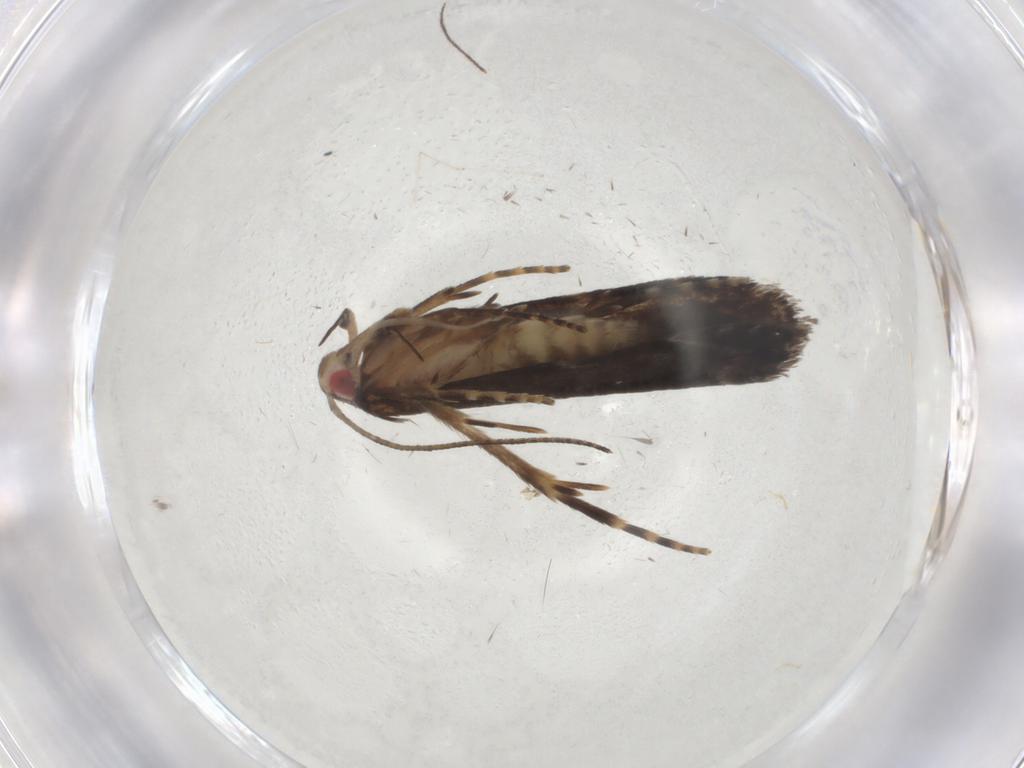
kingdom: Animalia
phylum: Arthropoda
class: Insecta
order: Lepidoptera
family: Gelechiidae
